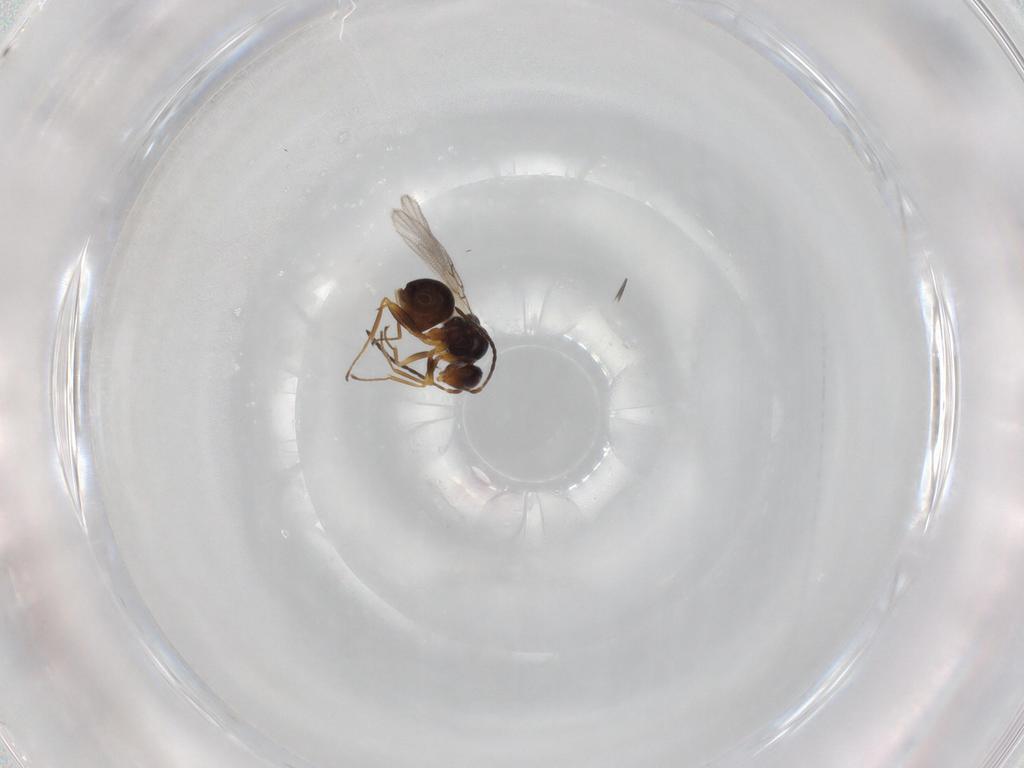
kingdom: Animalia
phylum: Arthropoda
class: Insecta
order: Hymenoptera
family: Figitidae
